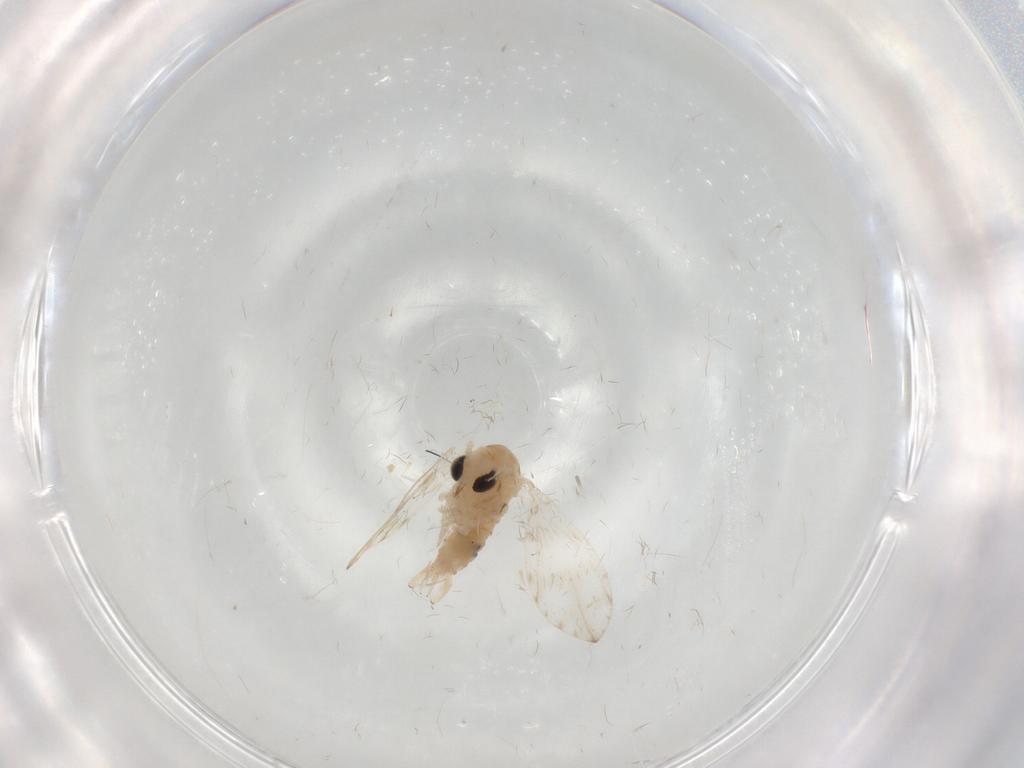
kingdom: Animalia
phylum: Arthropoda
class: Insecta
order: Diptera
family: Psychodidae
